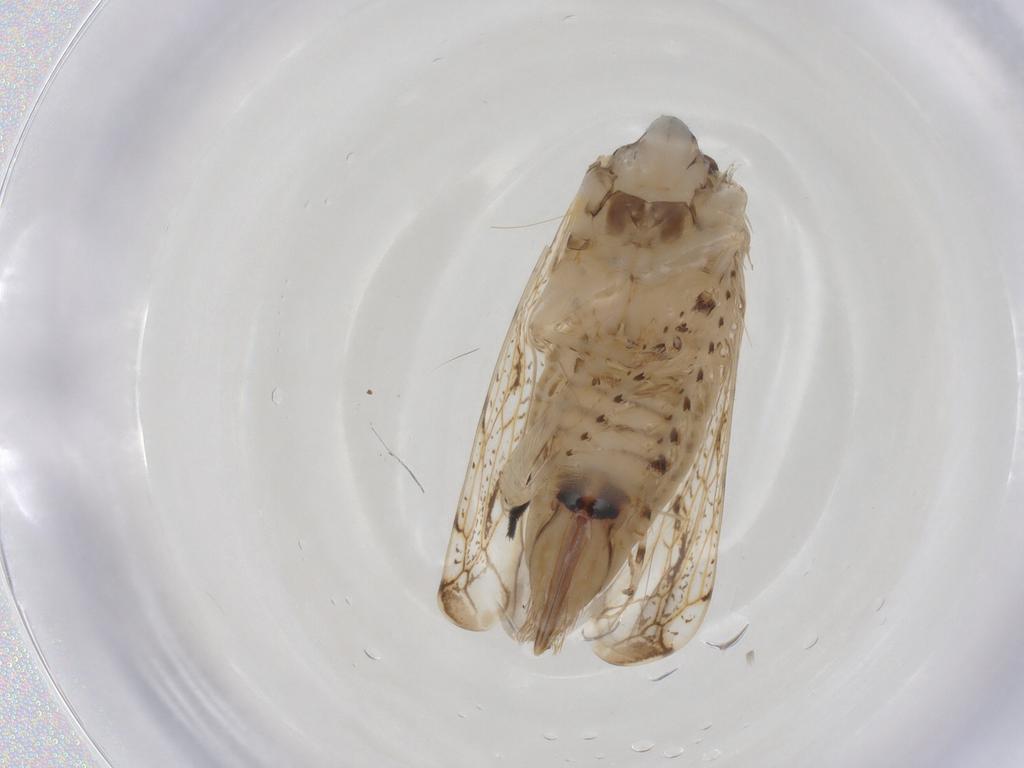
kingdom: Animalia
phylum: Arthropoda
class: Insecta
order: Hemiptera
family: Cicadellidae
